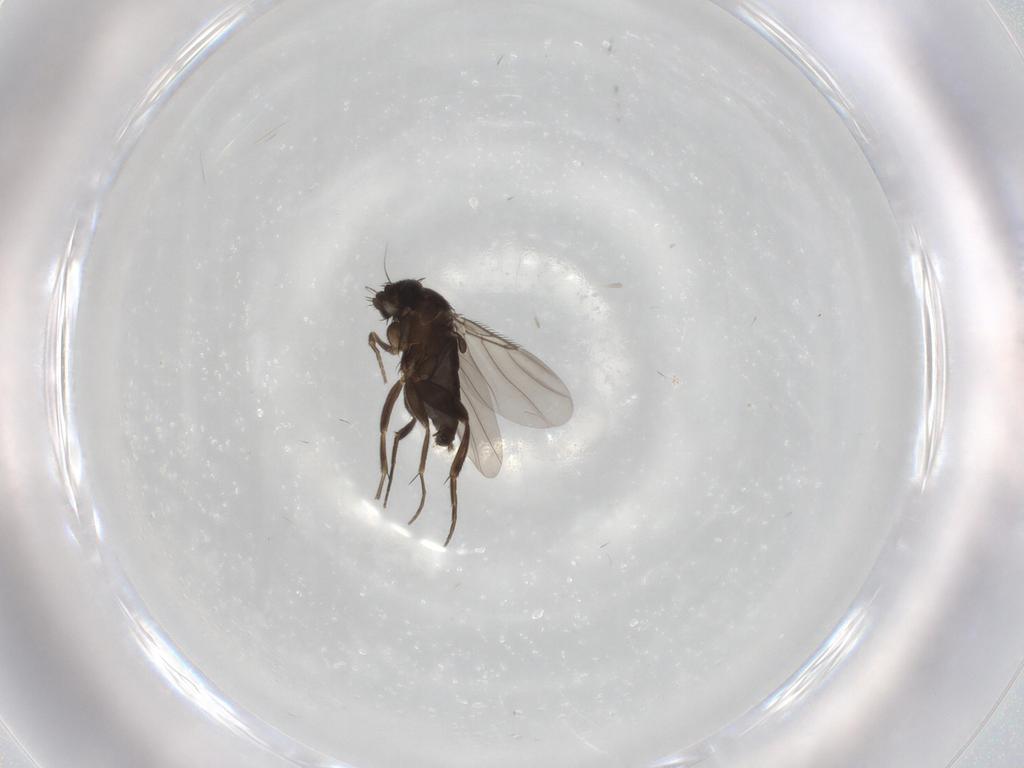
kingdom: Animalia
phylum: Arthropoda
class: Insecta
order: Diptera
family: Phoridae
